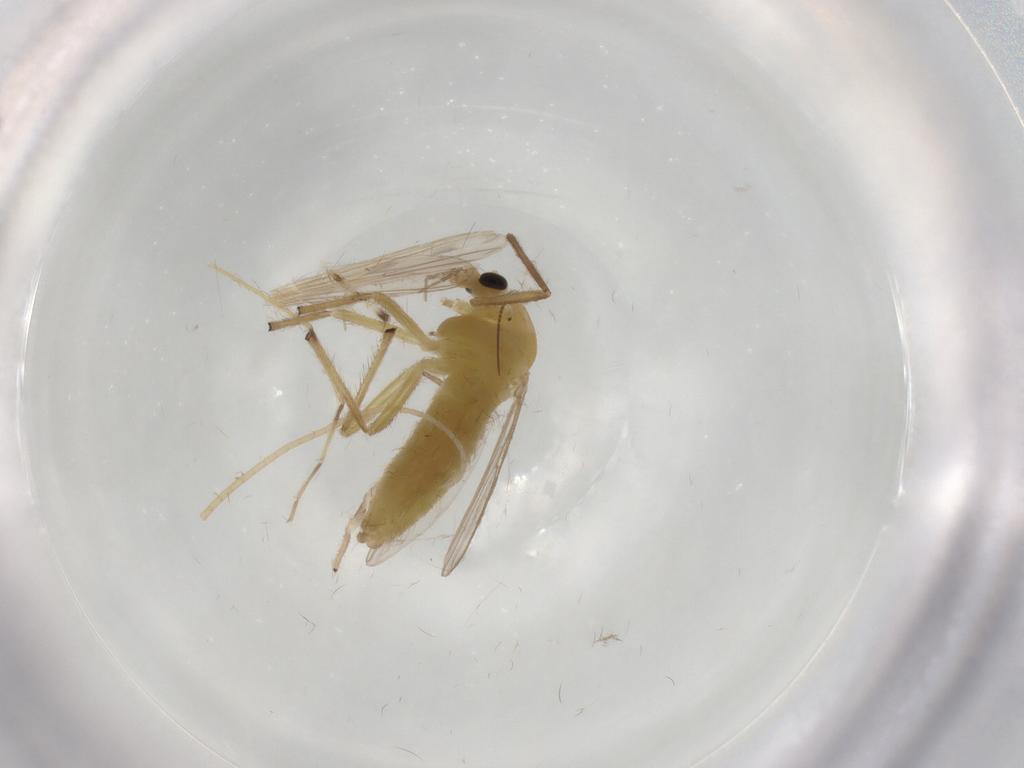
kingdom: Animalia
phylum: Arthropoda
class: Insecta
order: Diptera
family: Chironomidae
